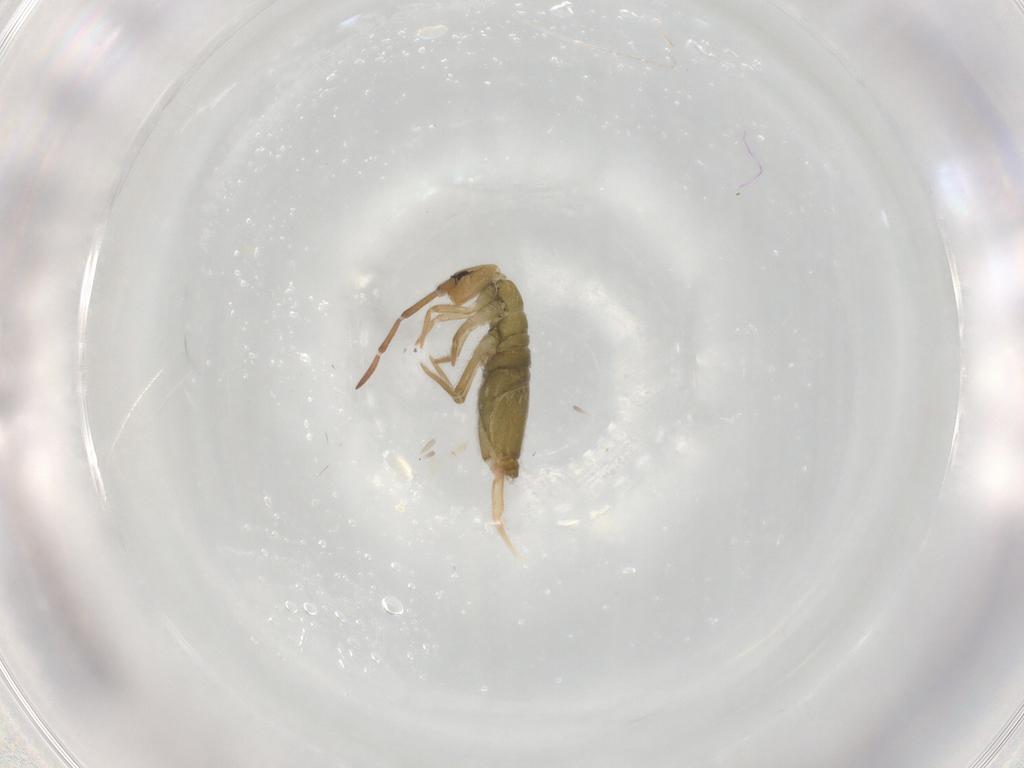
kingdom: Animalia
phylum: Arthropoda
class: Collembola
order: Entomobryomorpha
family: Entomobryidae
